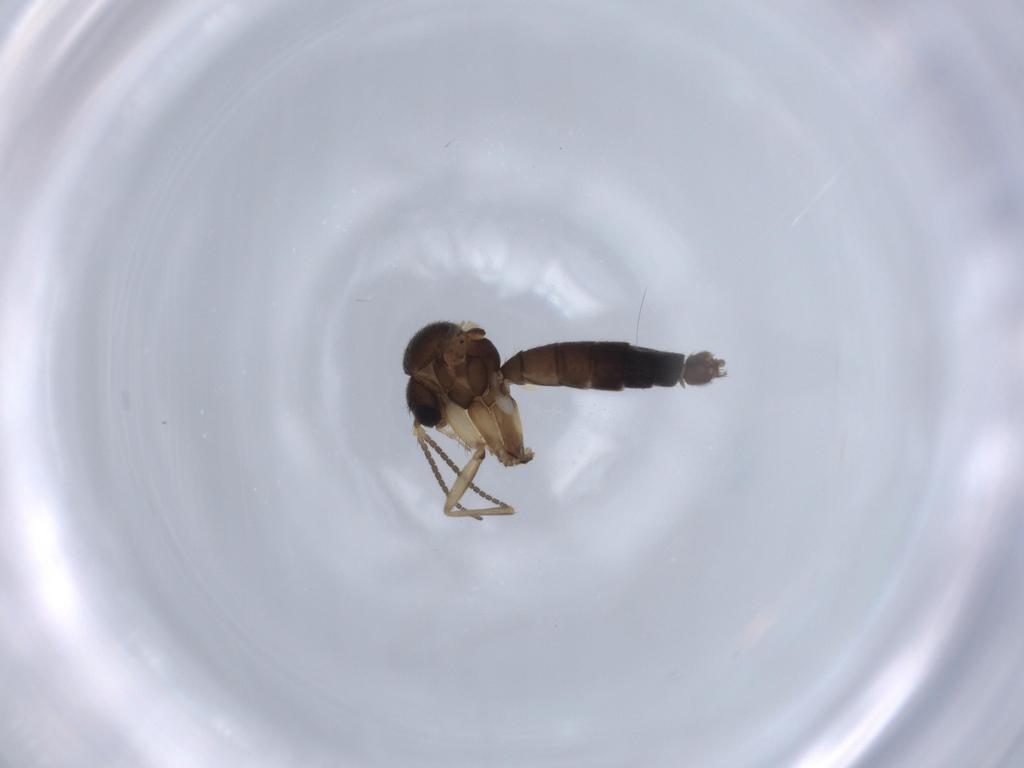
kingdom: Animalia
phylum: Arthropoda
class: Insecta
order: Diptera
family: Mycetophilidae
